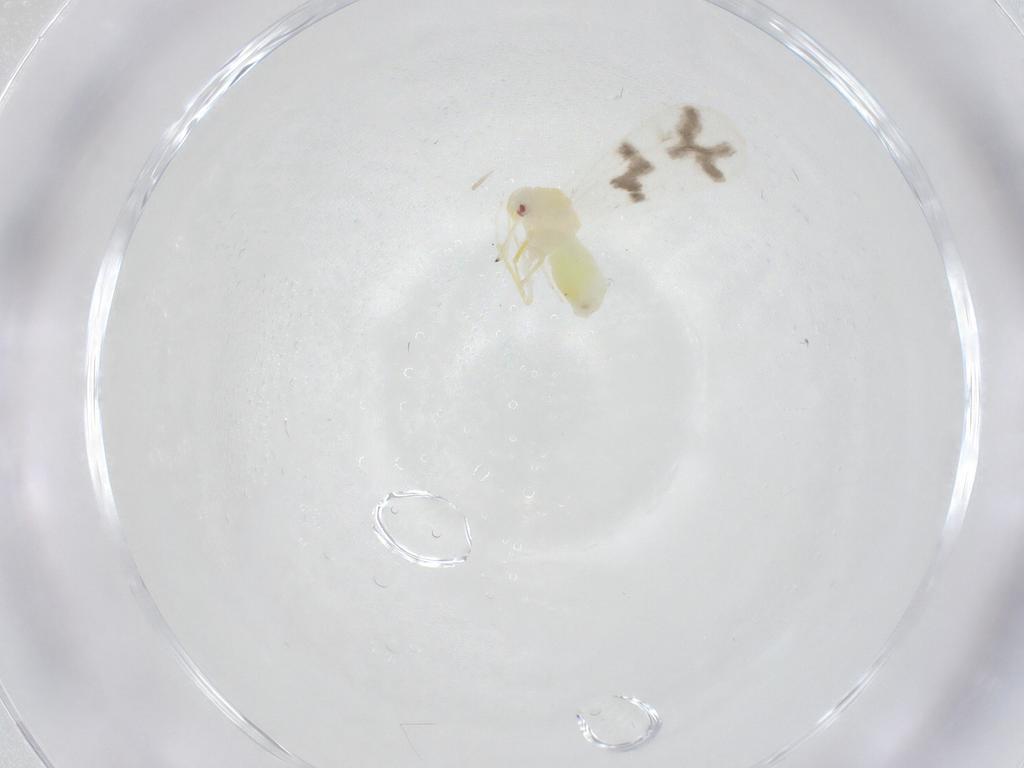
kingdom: Animalia
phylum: Arthropoda
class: Insecta
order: Hemiptera
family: Aleyrodidae
